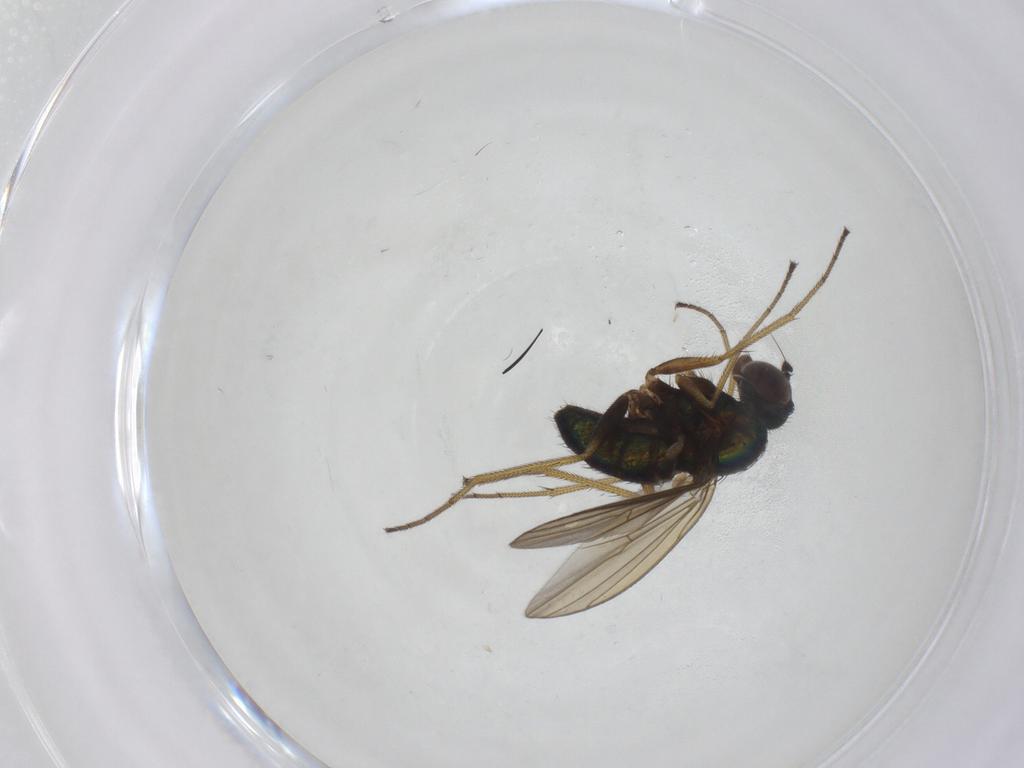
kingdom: Animalia
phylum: Arthropoda
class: Insecta
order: Diptera
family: Dolichopodidae
